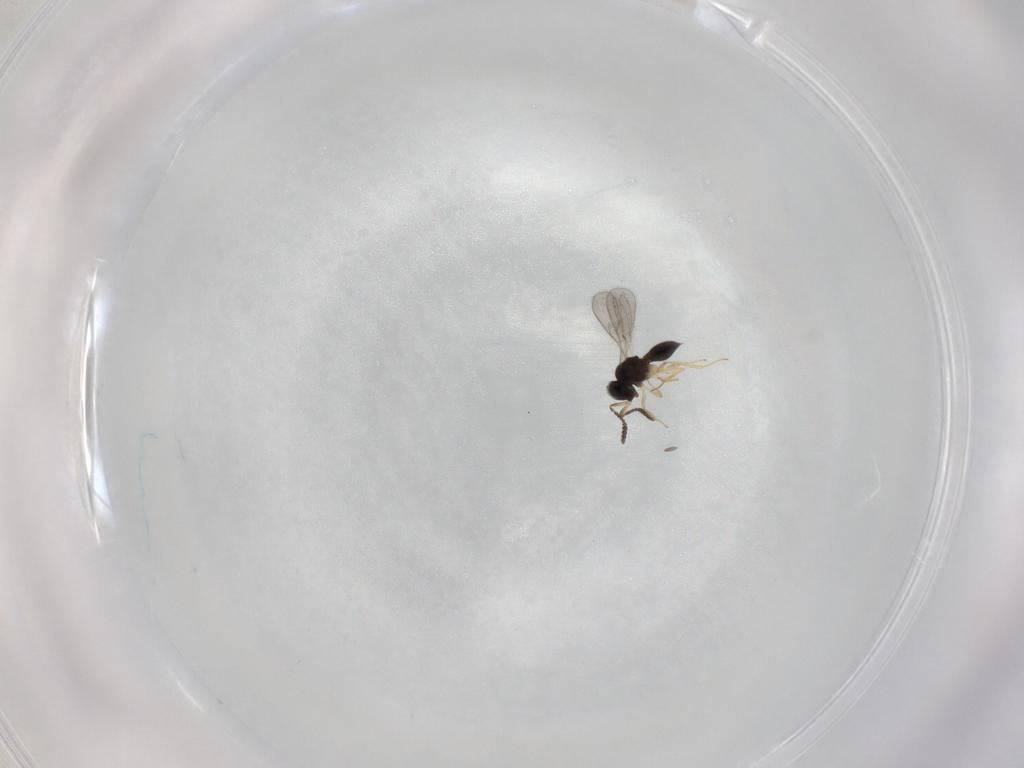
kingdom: Animalia
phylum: Arthropoda
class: Insecta
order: Hymenoptera
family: Scelionidae
